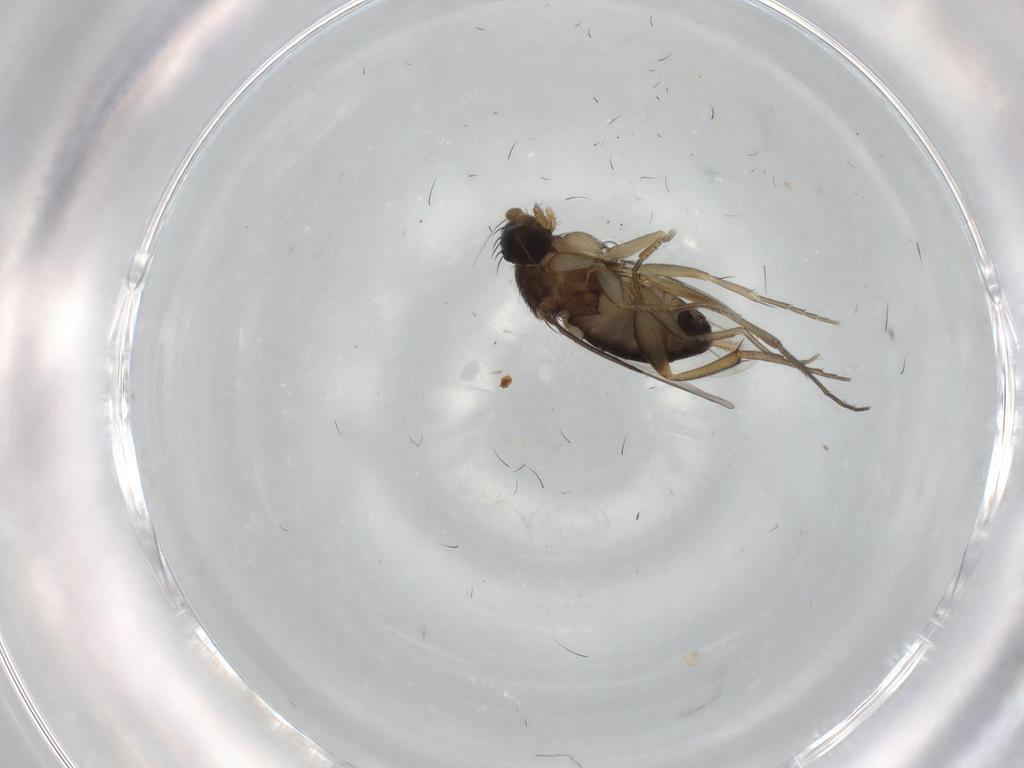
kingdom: Animalia
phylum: Arthropoda
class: Insecta
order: Diptera
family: Phoridae
